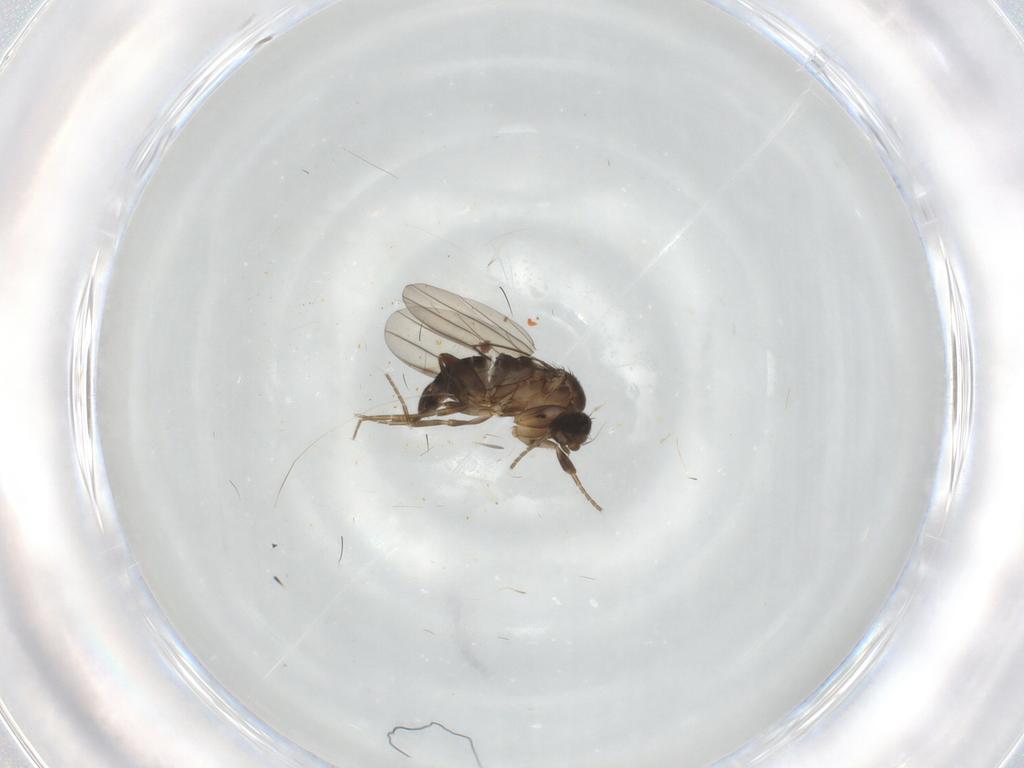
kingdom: Animalia
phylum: Arthropoda
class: Insecta
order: Diptera
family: Phoridae
